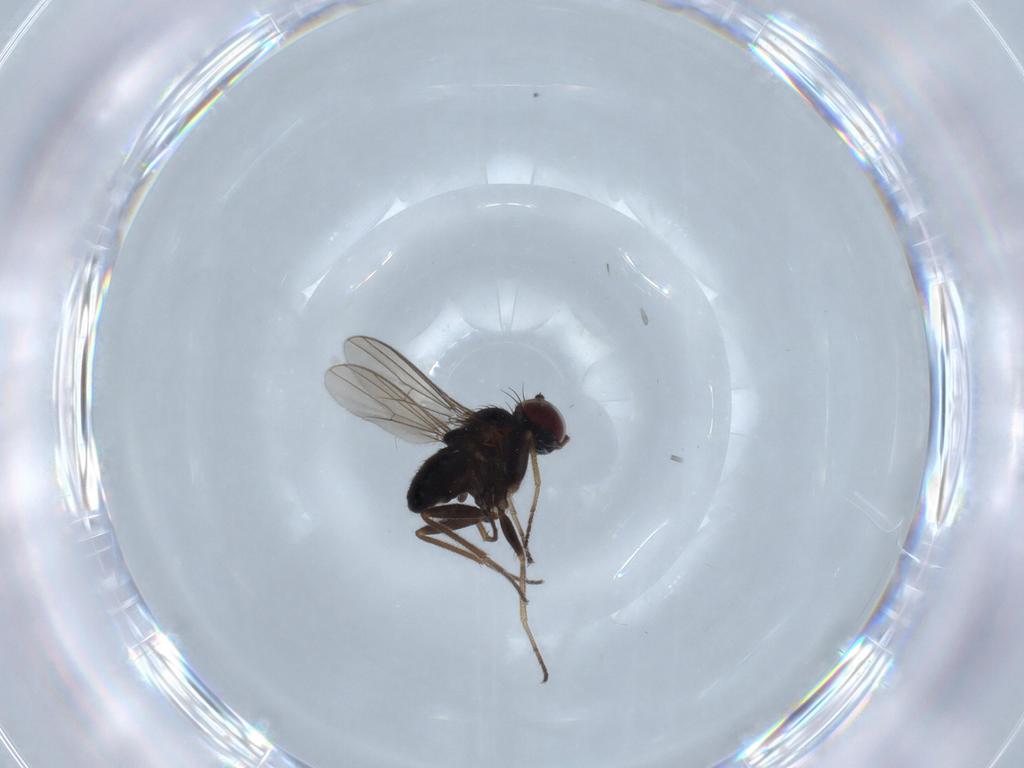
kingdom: Animalia
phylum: Arthropoda
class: Insecta
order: Diptera
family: Dolichopodidae
